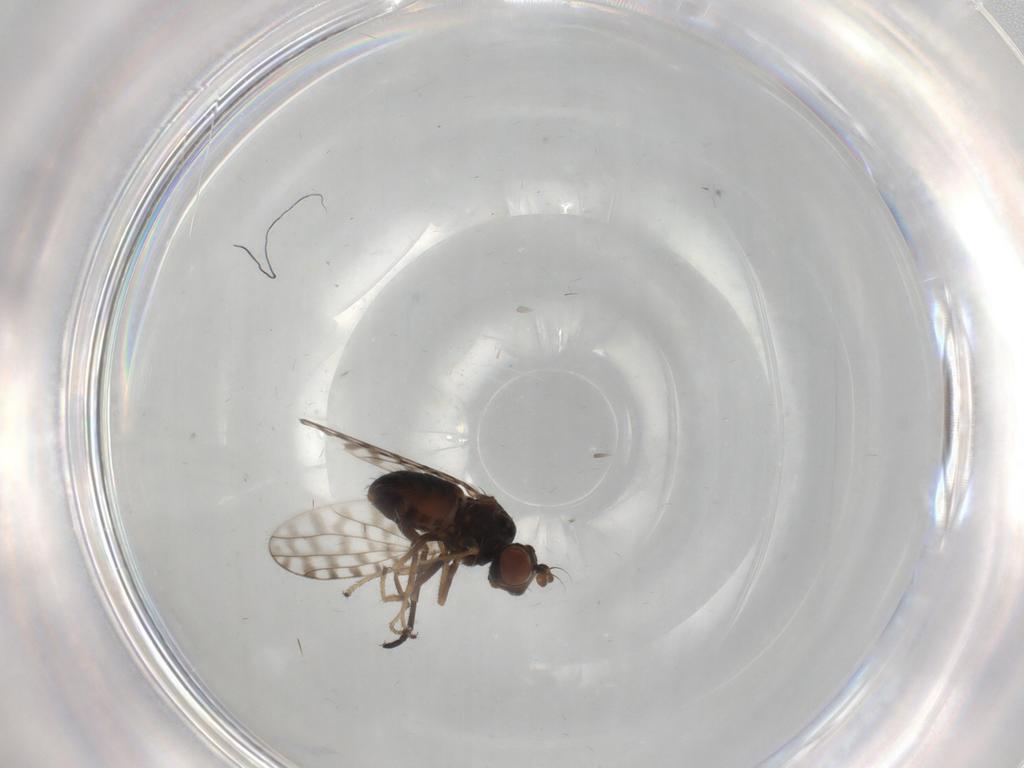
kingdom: Animalia
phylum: Arthropoda
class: Insecta
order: Diptera
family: Ephydridae
